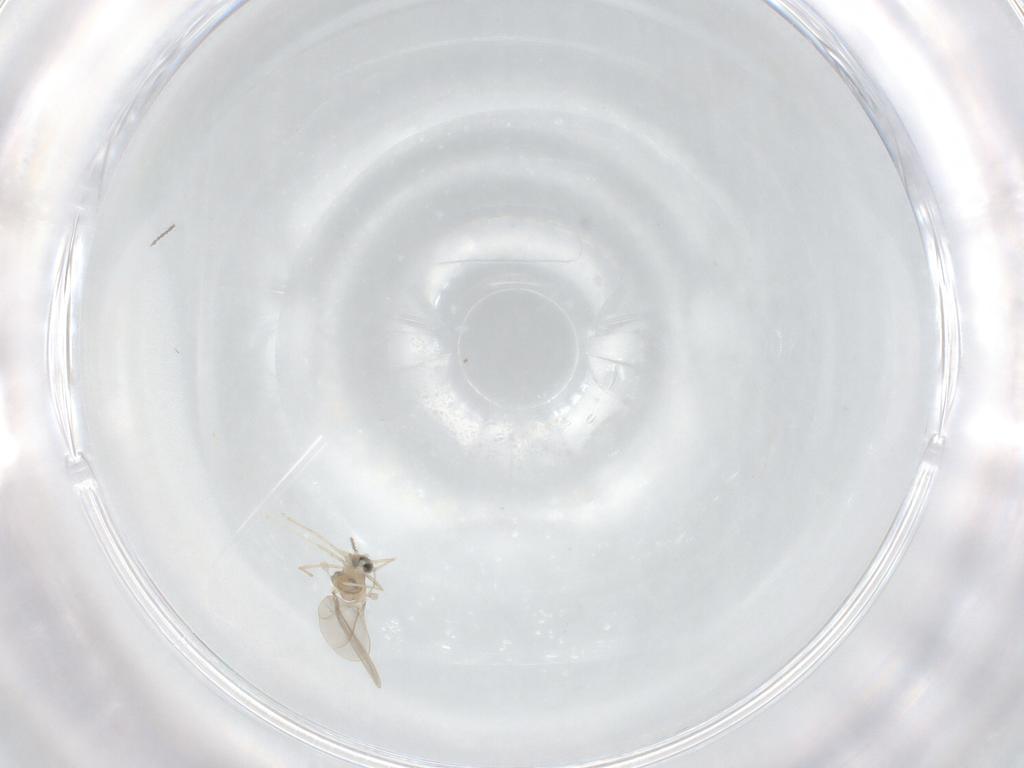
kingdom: Animalia
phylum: Arthropoda
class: Insecta
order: Diptera
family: Cecidomyiidae
